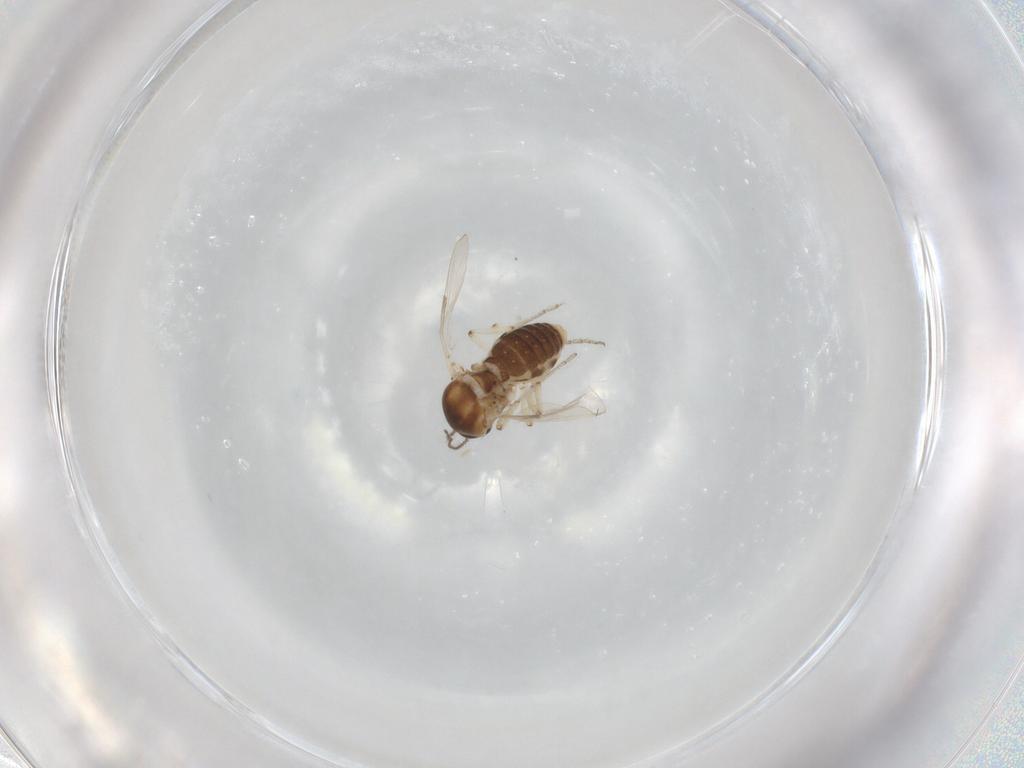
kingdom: Animalia
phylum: Arthropoda
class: Insecta
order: Diptera
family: Ceratopogonidae
